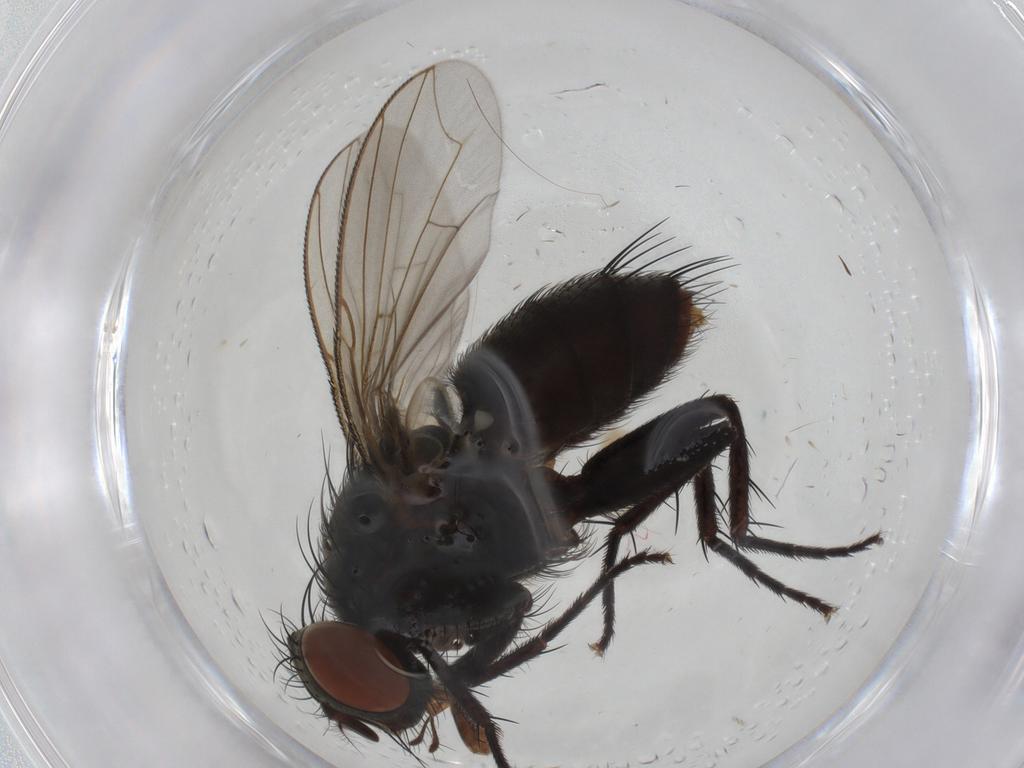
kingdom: Animalia
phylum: Arthropoda
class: Insecta
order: Diptera
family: Sarcophagidae
